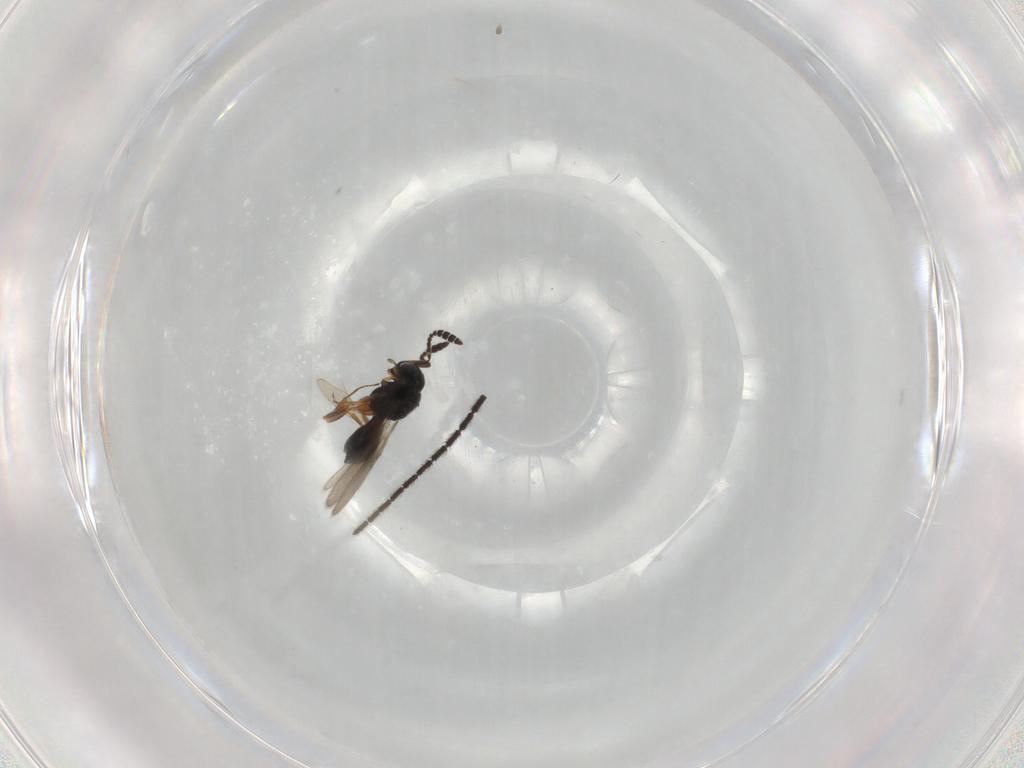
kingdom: Animalia
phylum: Arthropoda
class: Insecta
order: Hymenoptera
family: Scelionidae
